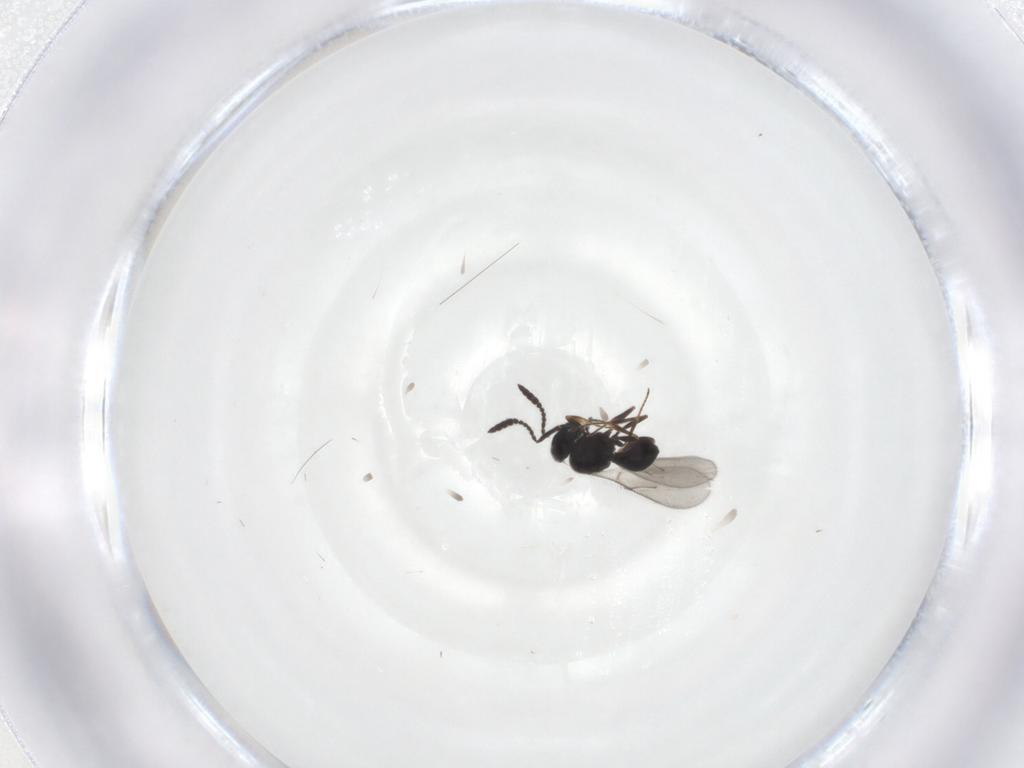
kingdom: Animalia
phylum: Arthropoda
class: Insecta
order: Hymenoptera
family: Scelionidae
